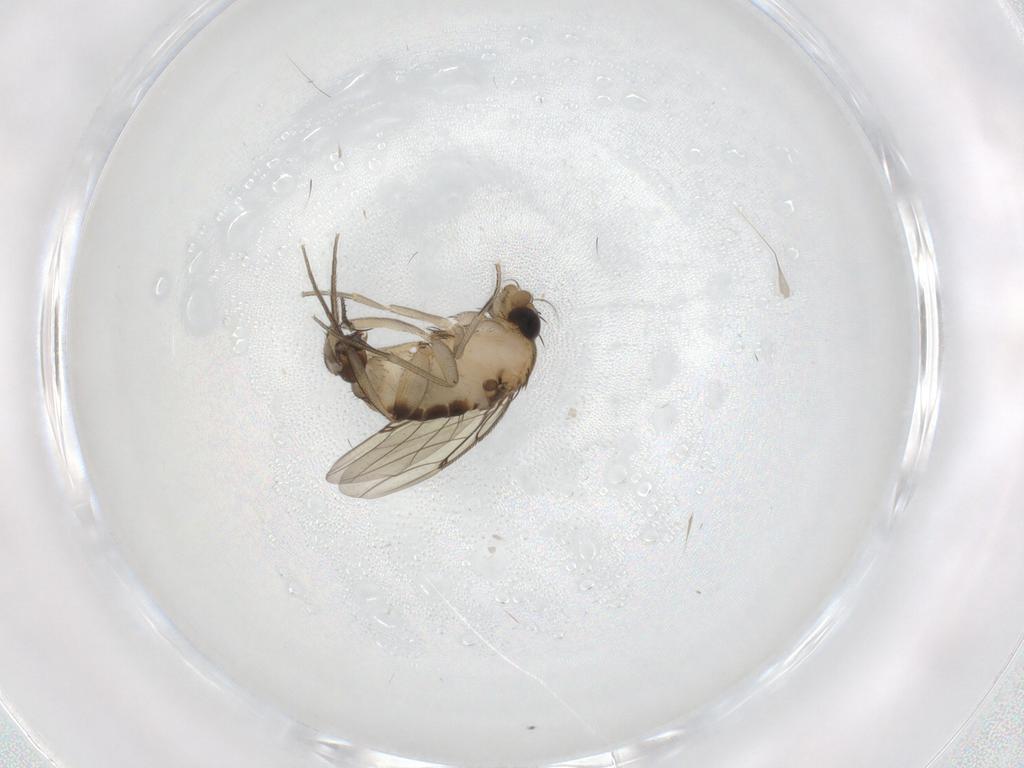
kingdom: Animalia
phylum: Arthropoda
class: Insecta
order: Diptera
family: Phoridae
